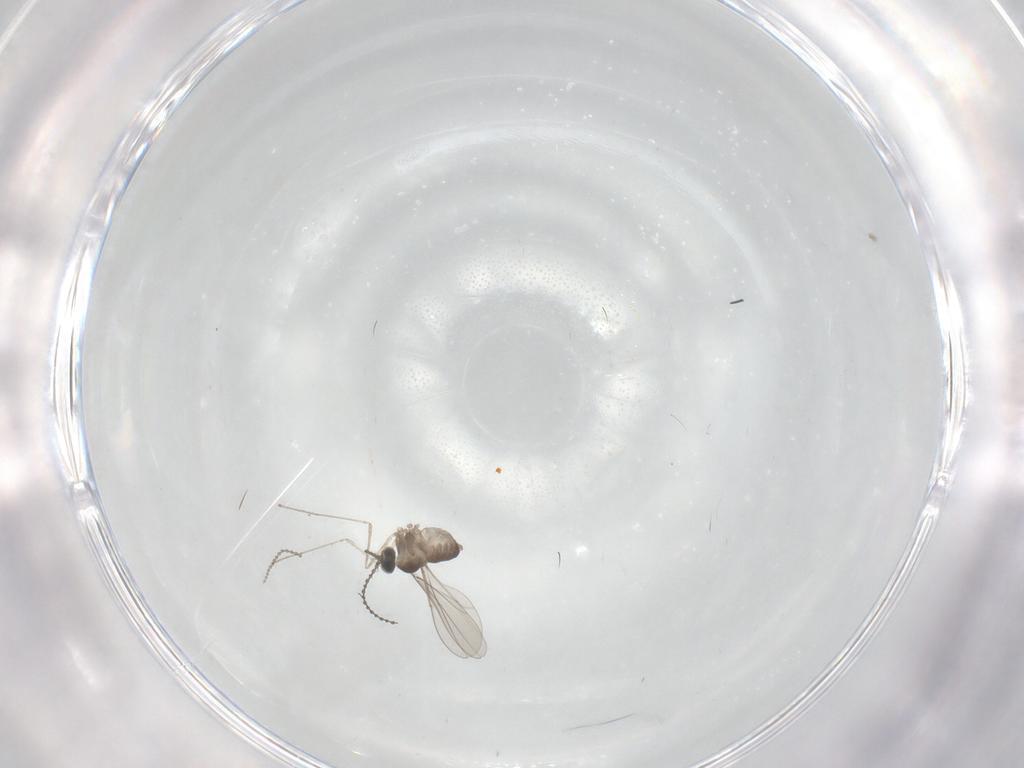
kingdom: Animalia
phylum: Arthropoda
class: Insecta
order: Diptera
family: Cecidomyiidae
